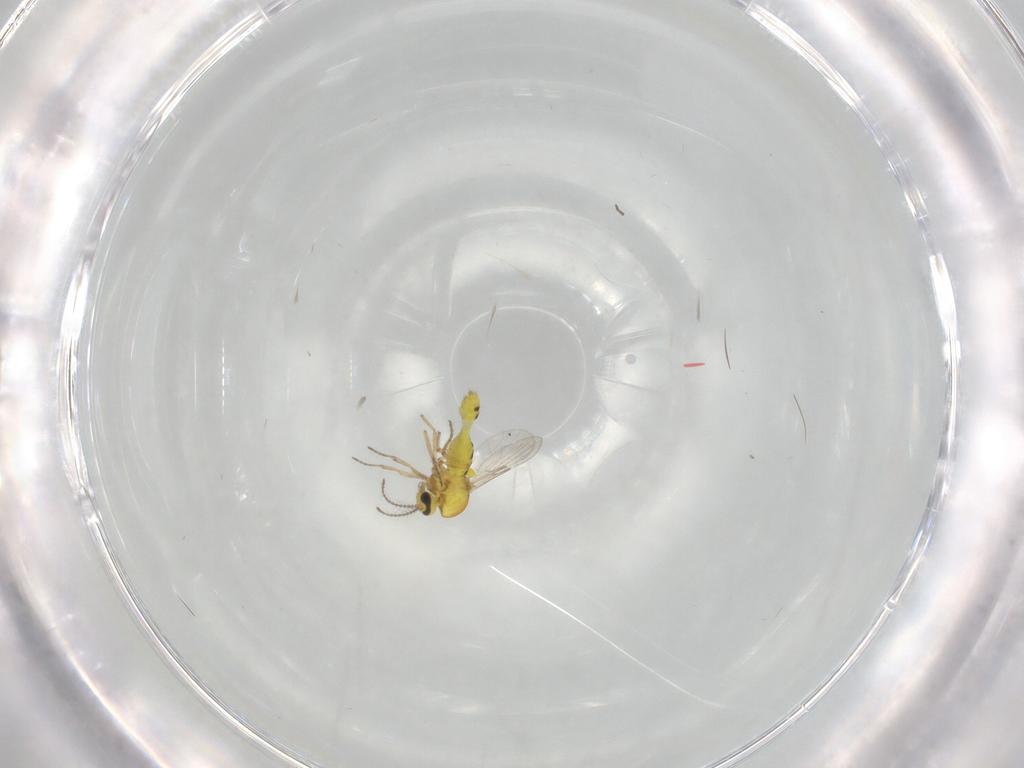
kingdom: Animalia
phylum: Arthropoda
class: Insecta
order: Diptera
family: Ceratopogonidae
